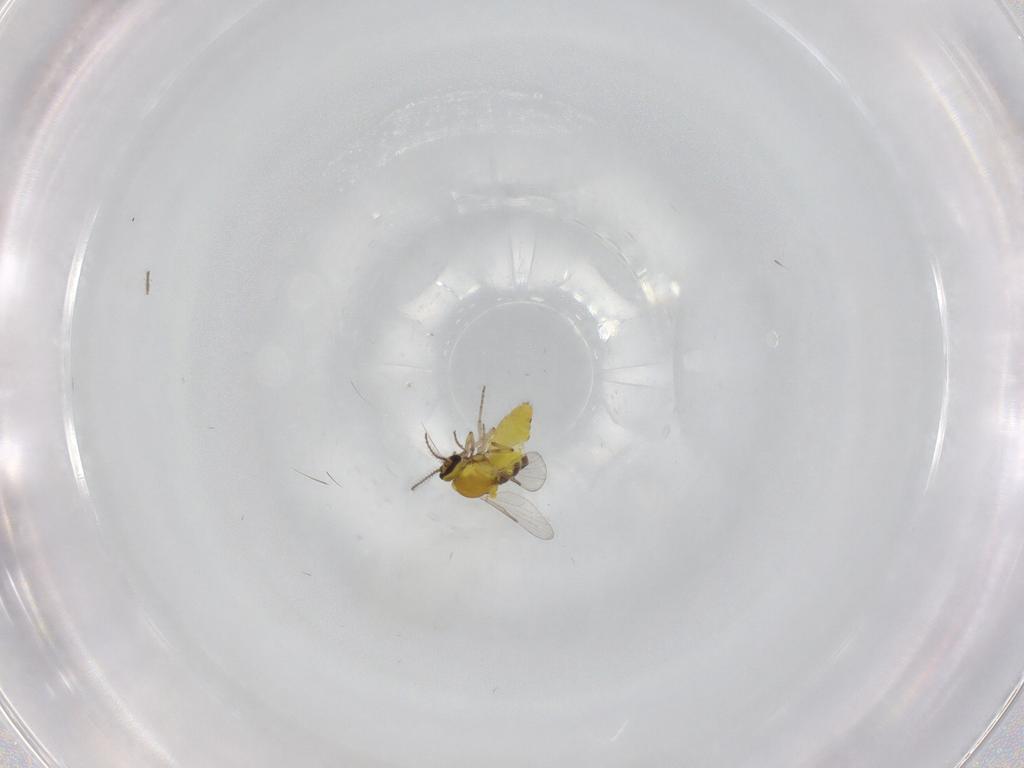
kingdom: Animalia
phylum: Arthropoda
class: Insecta
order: Diptera
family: Ceratopogonidae
